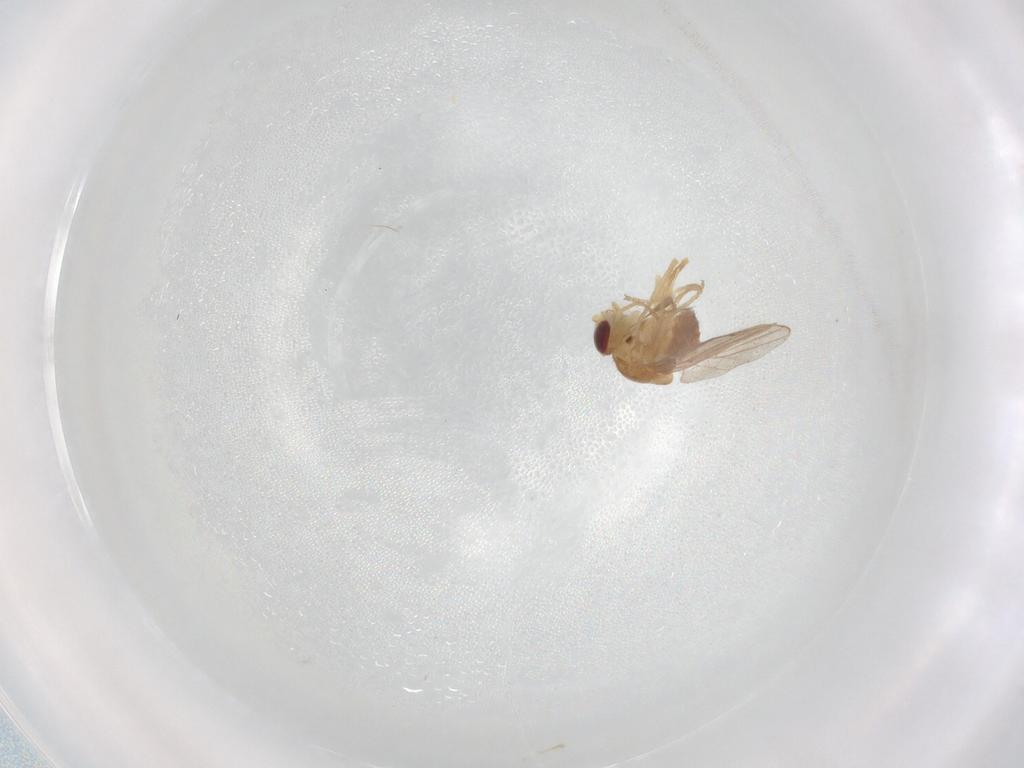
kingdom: Animalia
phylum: Arthropoda
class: Insecta
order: Diptera
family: Chloropidae
